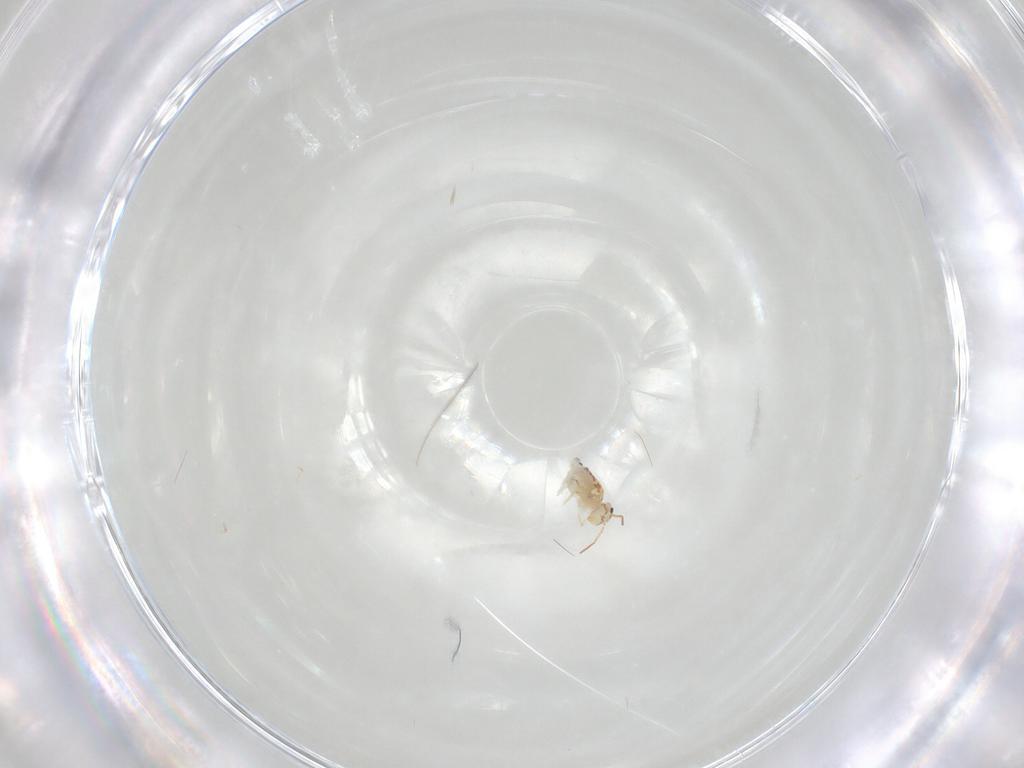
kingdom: Animalia
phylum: Arthropoda
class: Collembola
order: Symphypleona
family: Bourletiellidae
